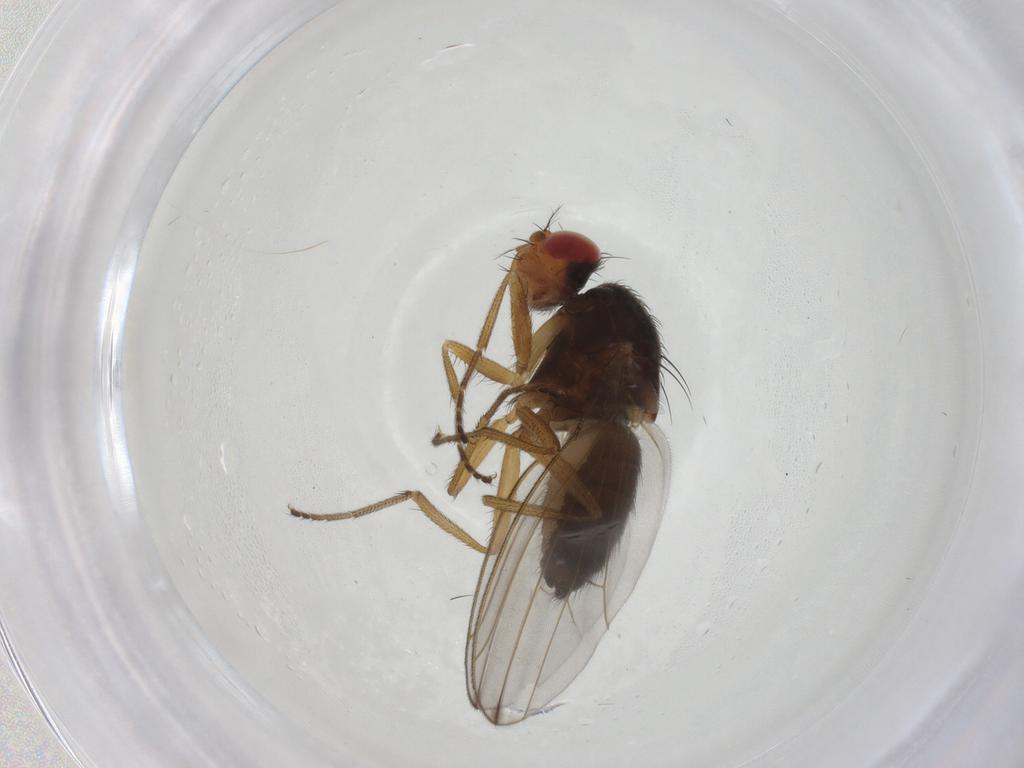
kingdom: Animalia
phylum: Arthropoda
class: Insecta
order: Diptera
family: Drosophilidae
